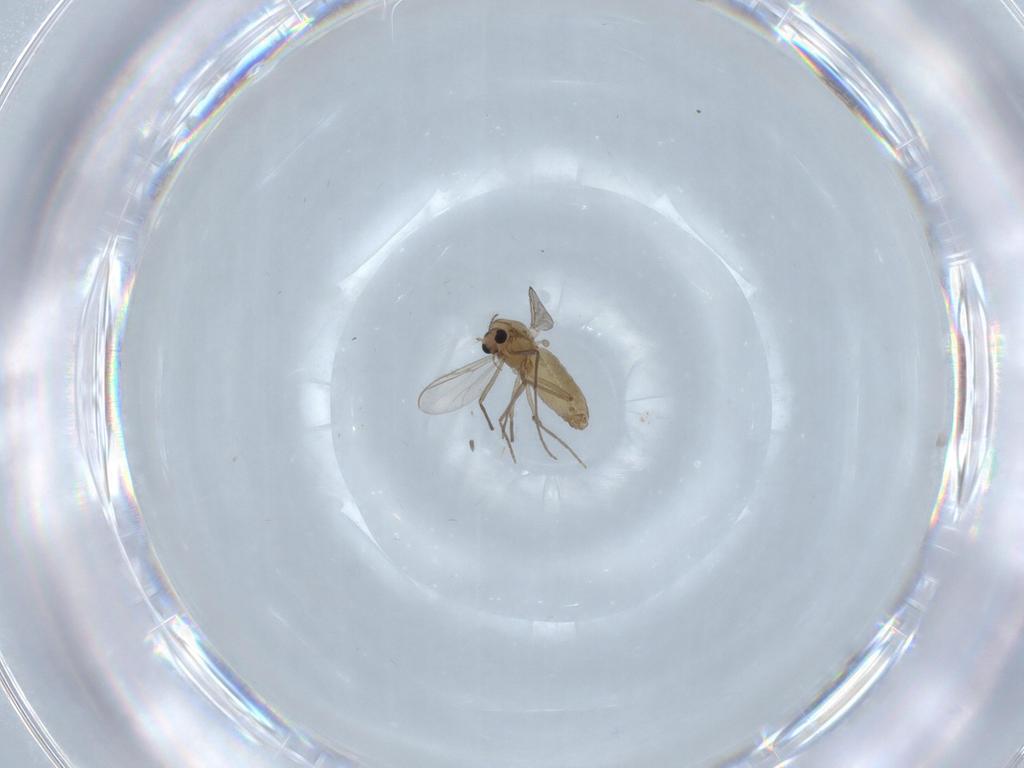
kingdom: Animalia
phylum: Arthropoda
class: Insecta
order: Diptera
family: Chironomidae
